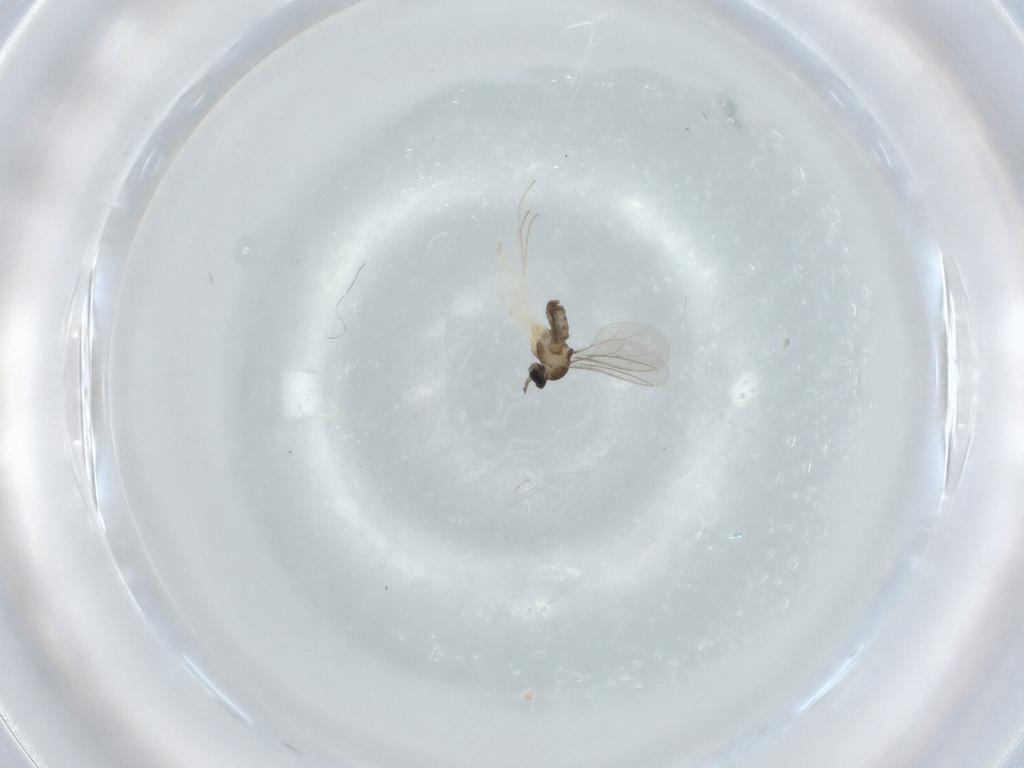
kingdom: Animalia
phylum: Arthropoda
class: Insecta
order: Diptera
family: Cecidomyiidae
